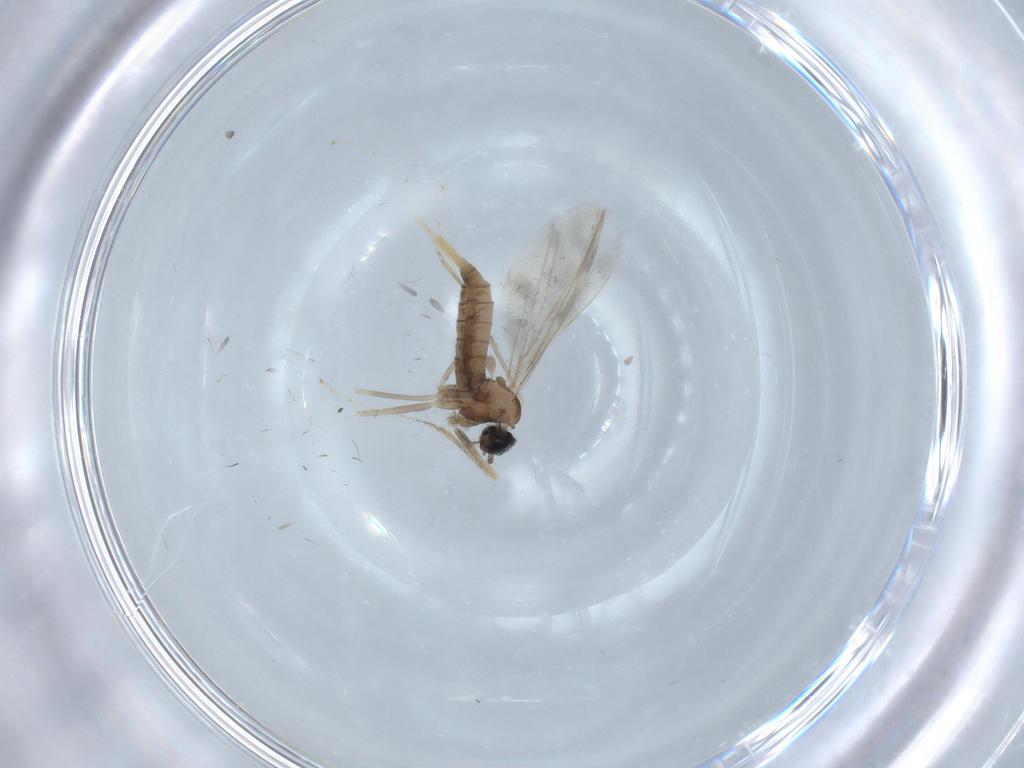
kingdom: Animalia
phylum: Arthropoda
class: Insecta
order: Diptera
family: Cecidomyiidae
